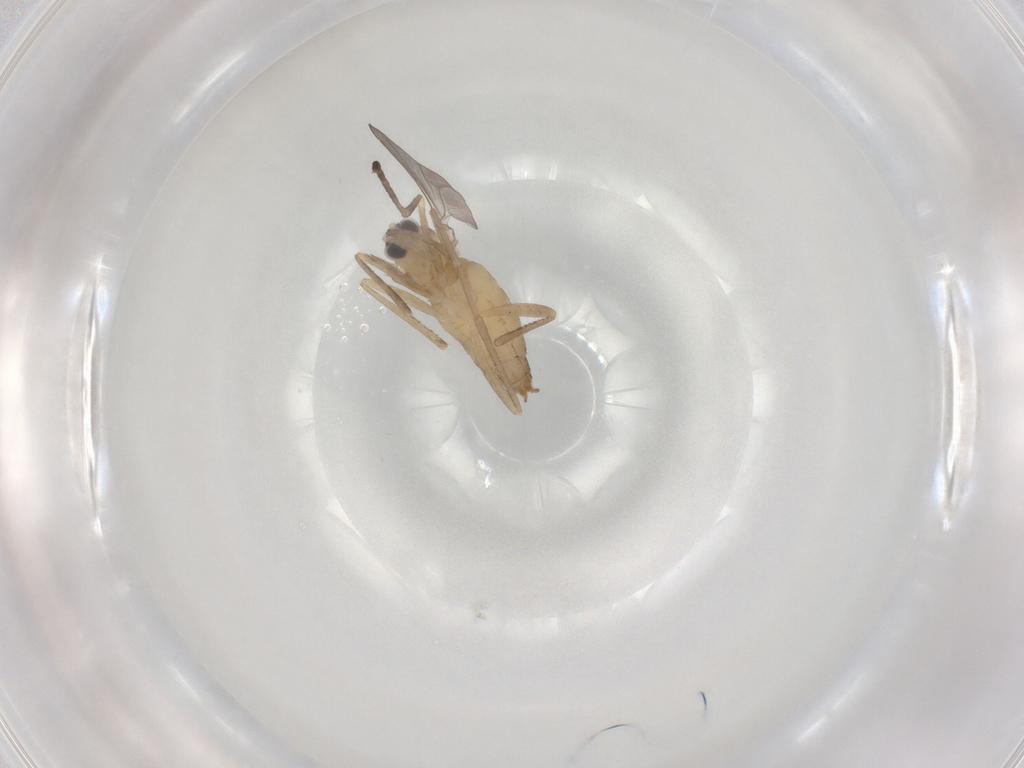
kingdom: Animalia
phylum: Arthropoda
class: Insecta
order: Diptera
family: Cecidomyiidae
